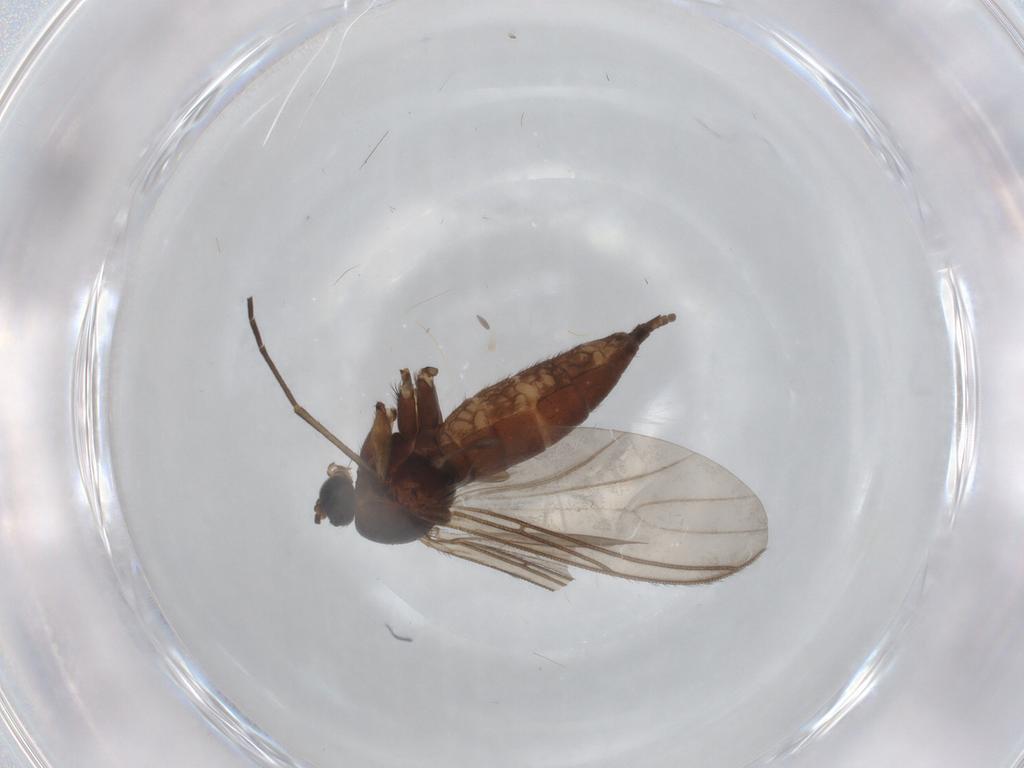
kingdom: Animalia
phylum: Arthropoda
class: Insecta
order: Diptera
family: Sciaridae
